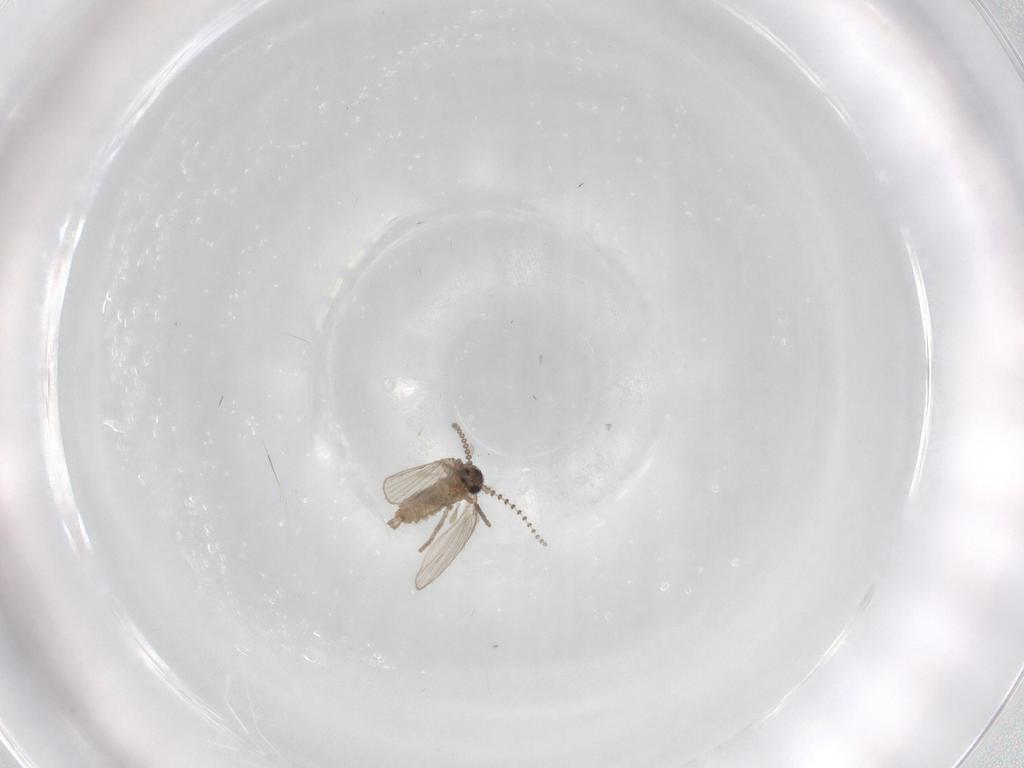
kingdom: Animalia
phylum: Arthropoda
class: Insecta
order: Diptera
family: Psychodidae
